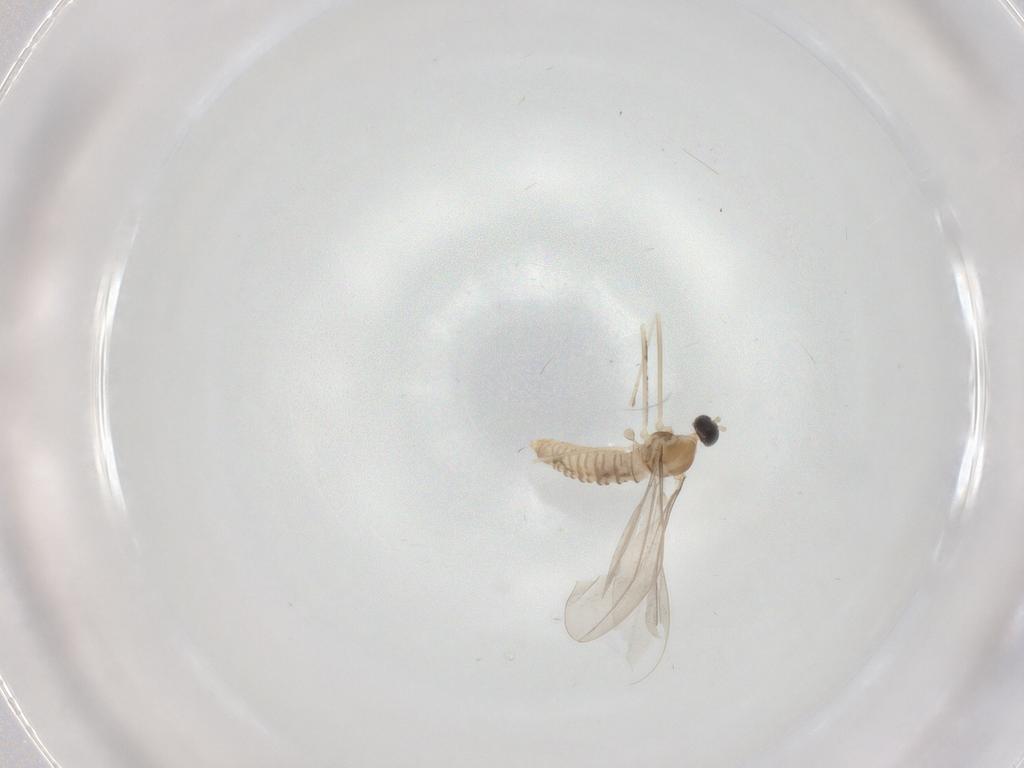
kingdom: Animalia
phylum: Arthropoda
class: Insecta
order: Diptera
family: Cecidomyiidae
